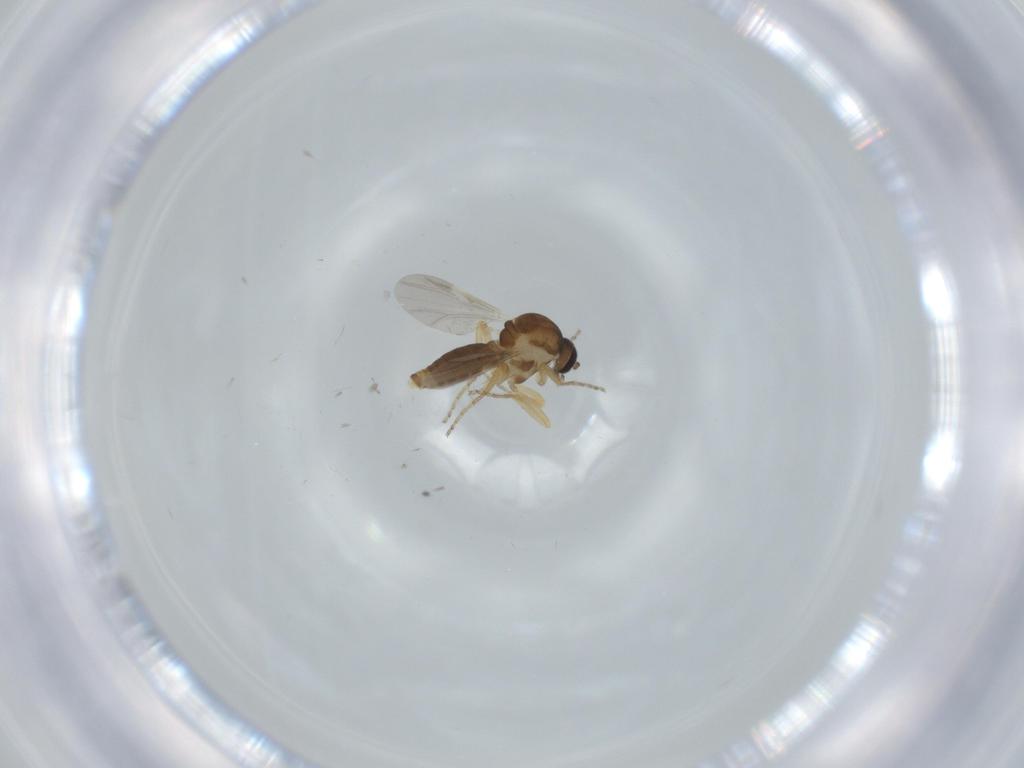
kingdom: Animalia
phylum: Arthropoda
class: Insecta
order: Diptera
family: Ceratopogonidae
